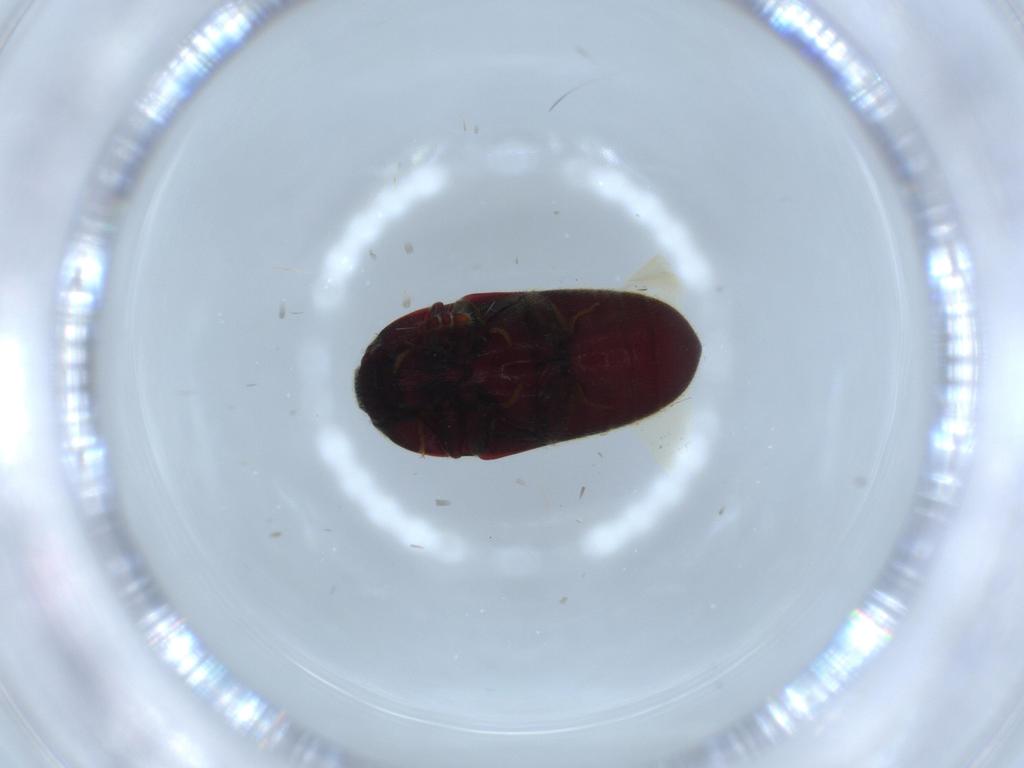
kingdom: Animalia
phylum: Arthropoda
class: Insecta
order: Coleoptera
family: Throscidae
